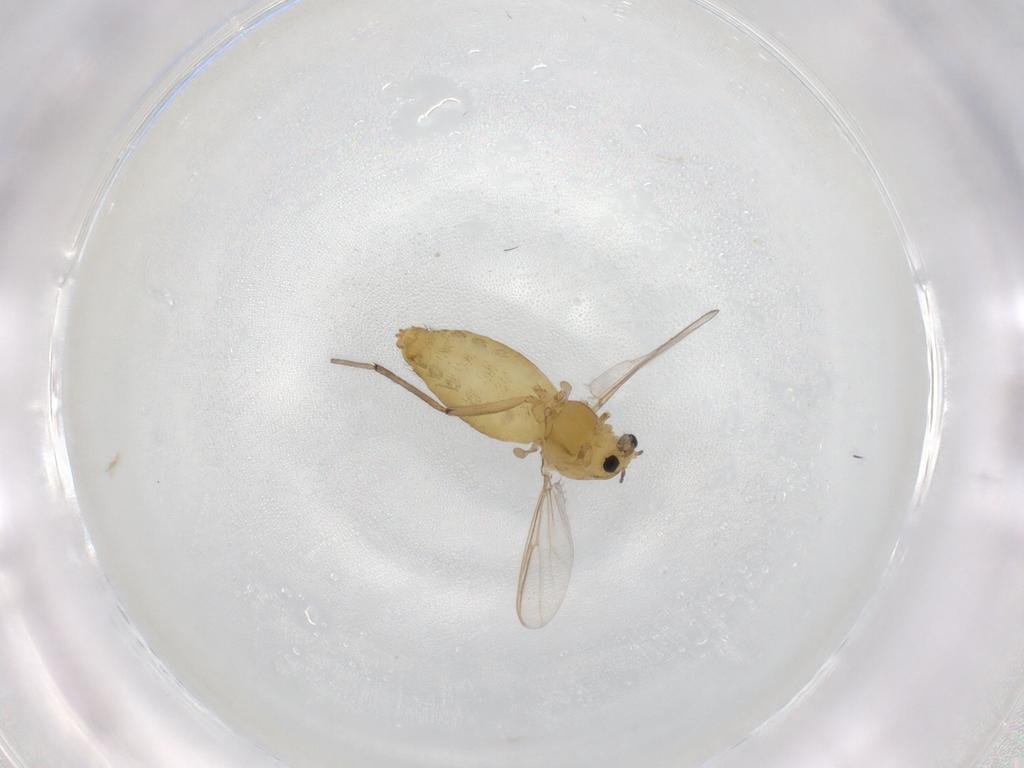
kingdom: Animalia
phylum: Arthropoda
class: Insecta
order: Diptera
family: Chironomidae
